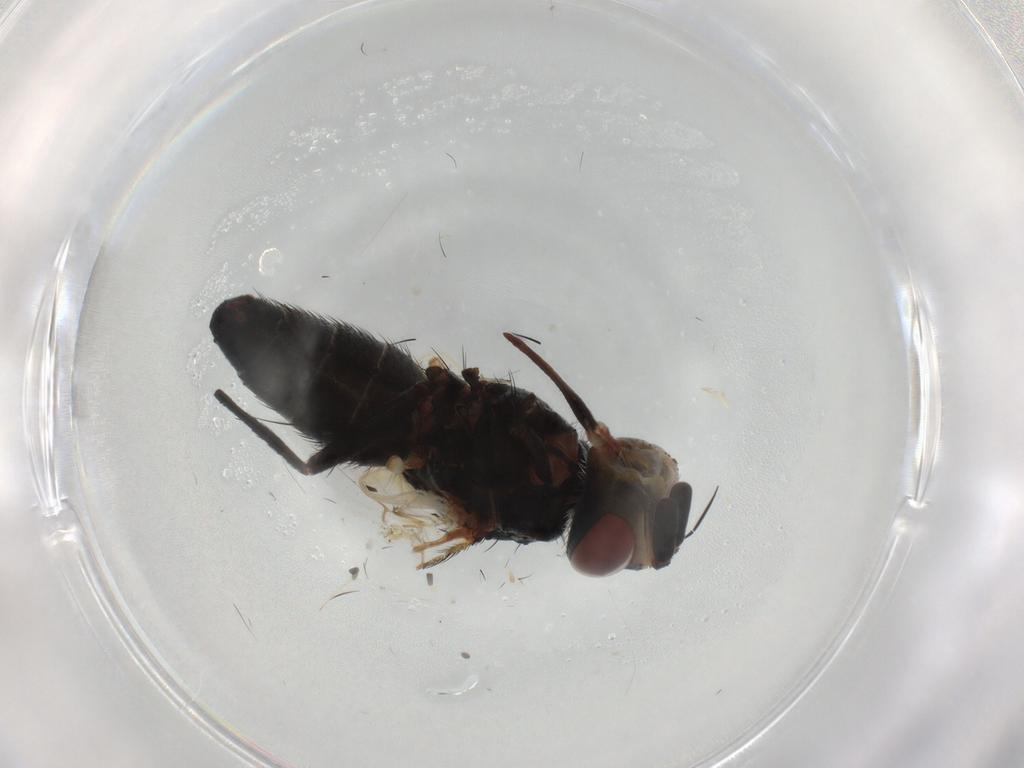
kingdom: Animalia
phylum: Arthropoda
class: Insecta
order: Diptera
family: Tachinidae
